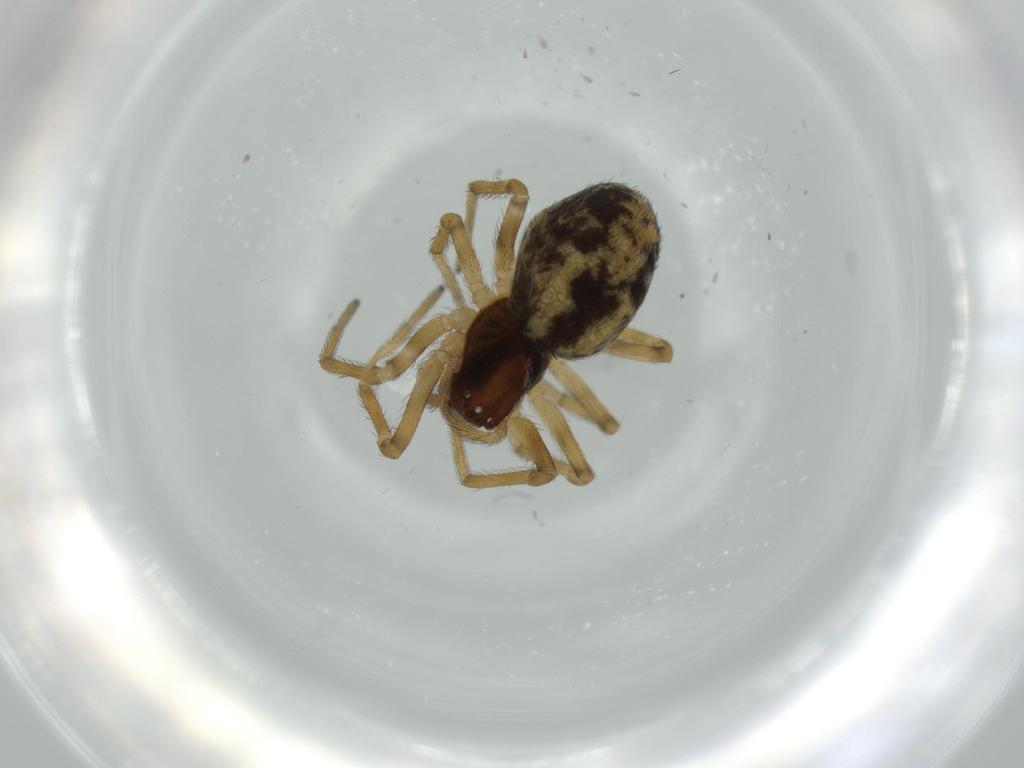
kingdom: Animalia
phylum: Arthropoda
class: Arachnida
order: Araneae
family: Dictynidae
